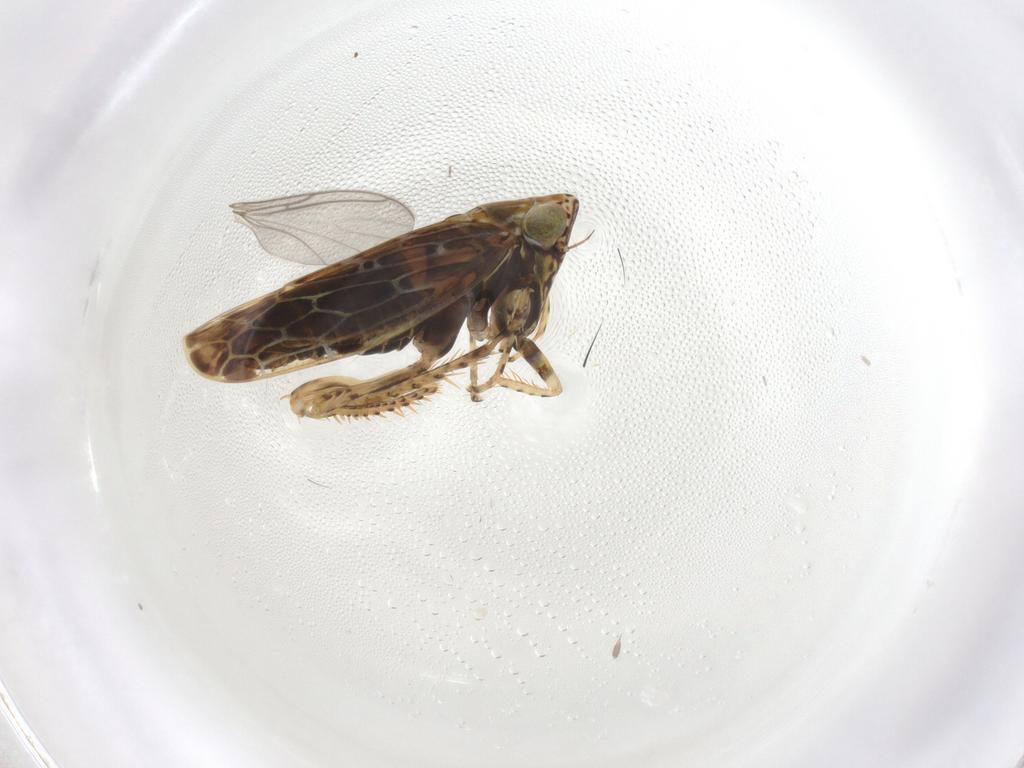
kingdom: Animalia
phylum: Arthropoda
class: Insecta
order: Hemiptera
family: Cicadellidae
